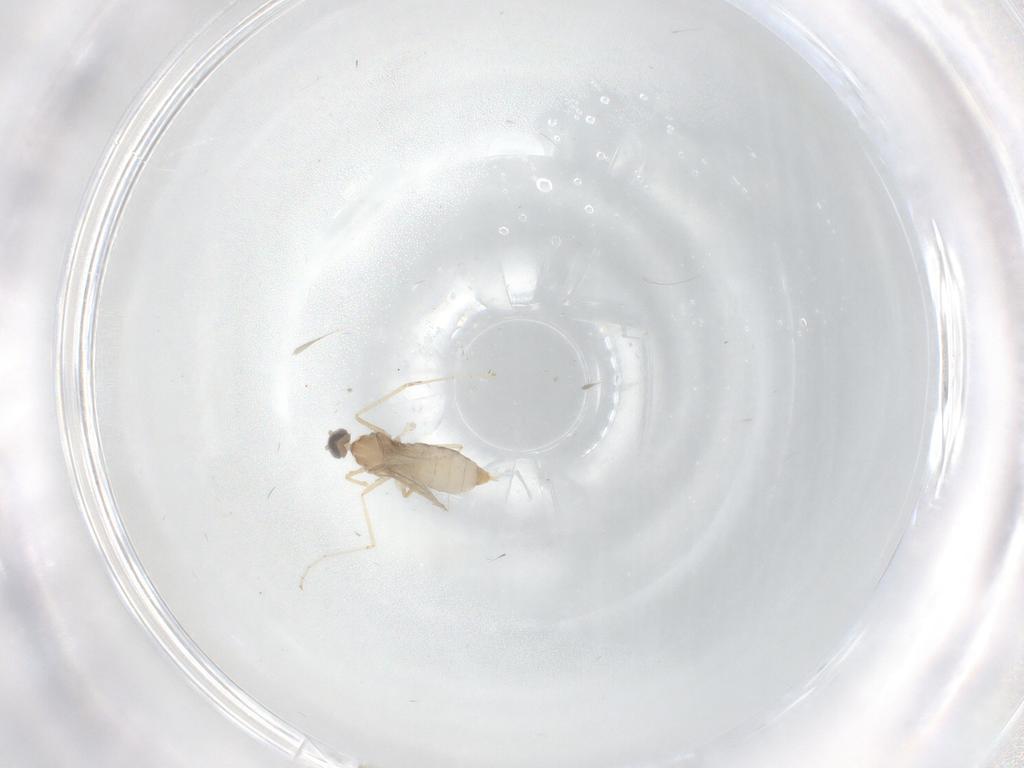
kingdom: Animalia
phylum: Arthropoda
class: Insecta
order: Diptera
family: Cecidomyiidae
